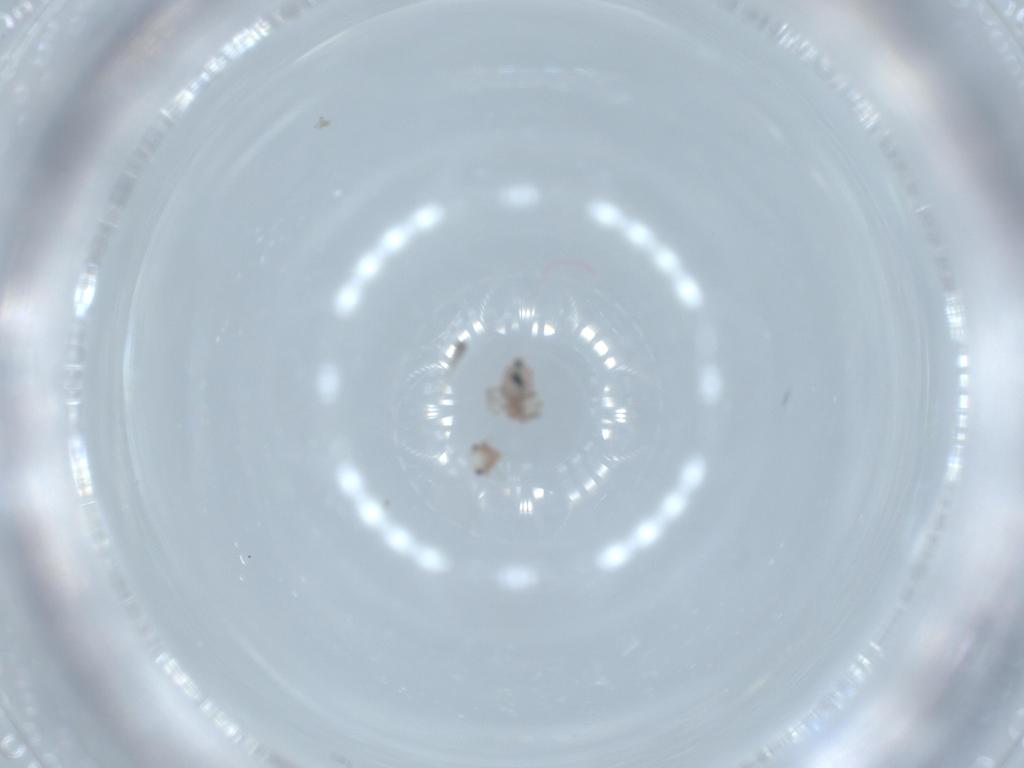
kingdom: Animalia
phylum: Arthropoda
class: Insecta
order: Psocodea
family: Lepidopsocidae
